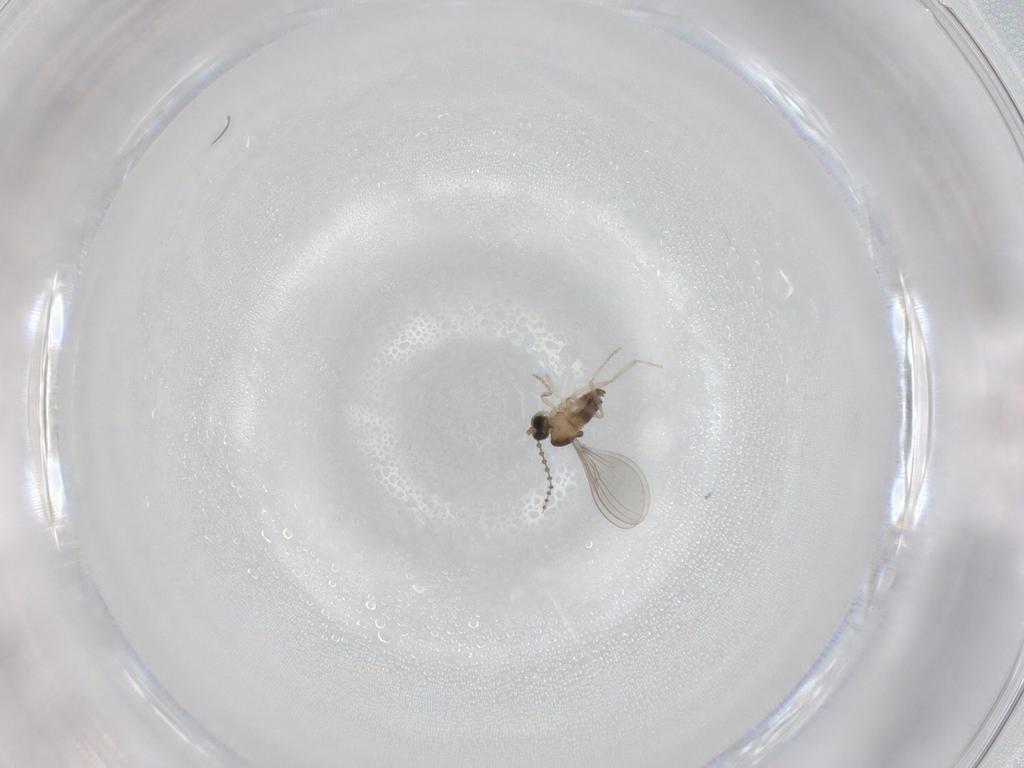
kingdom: Animalia
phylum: Arthropoda
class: Insecta
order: Diptera
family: Cecidomyiidae
